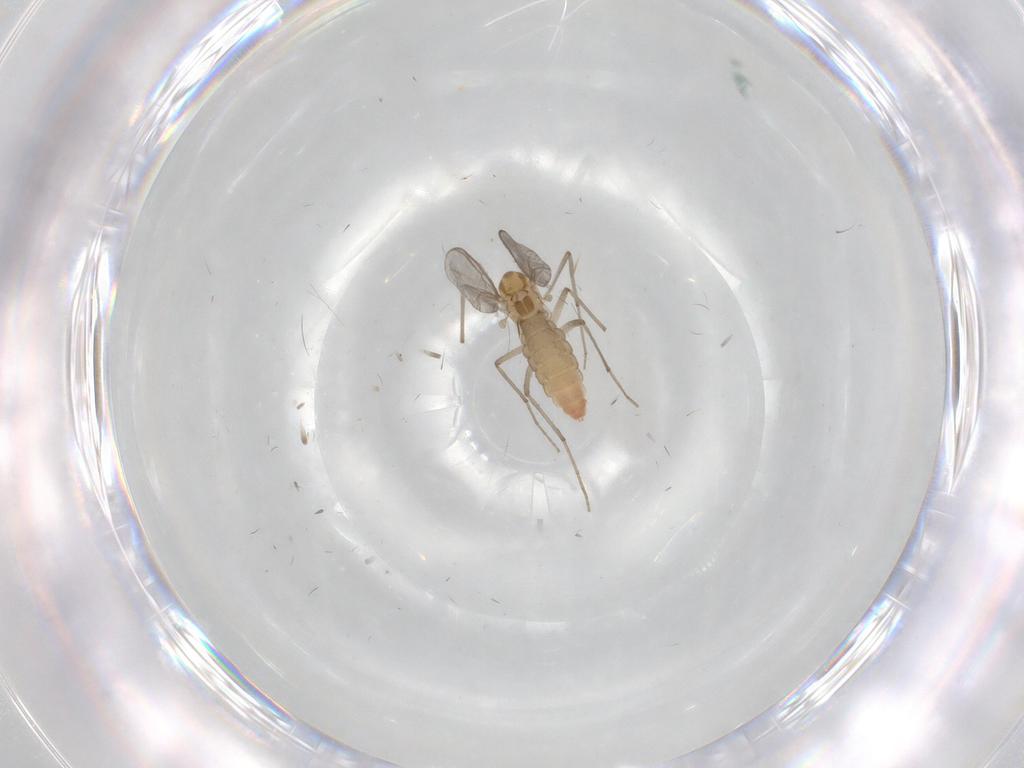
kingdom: Animalia
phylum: Arthropoda
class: Insecta
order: Diptera
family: Chironomidae
